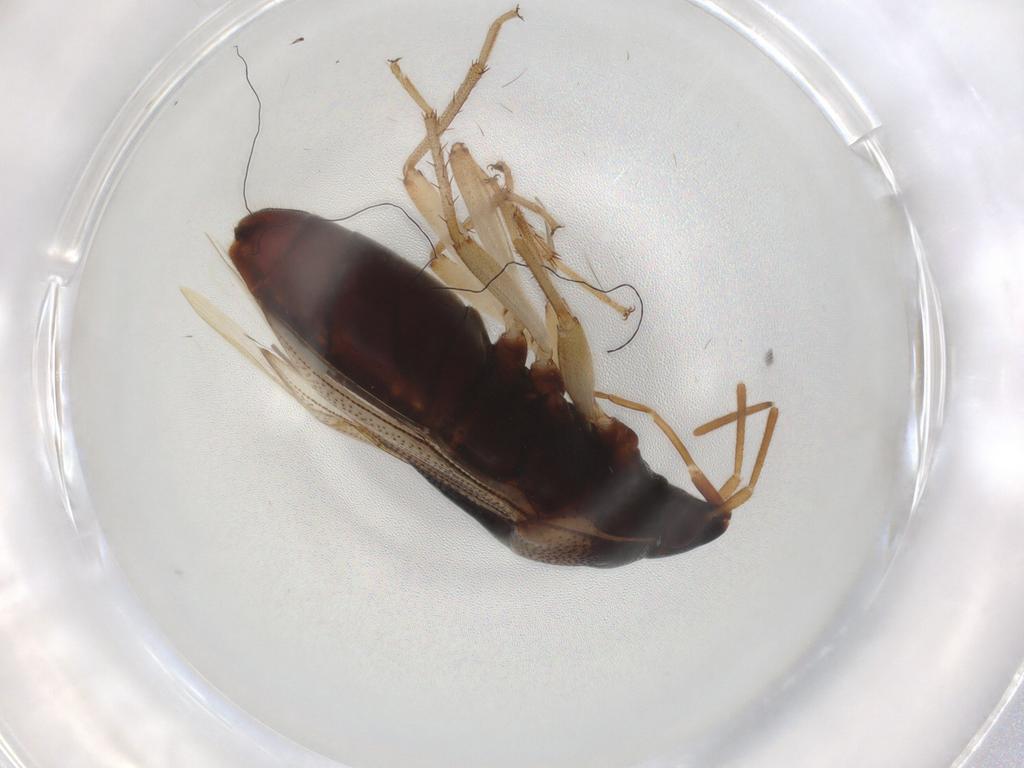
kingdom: Animalia
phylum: Arthropoda
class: Insecta
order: Hemiptera
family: Rhyparochromidae
